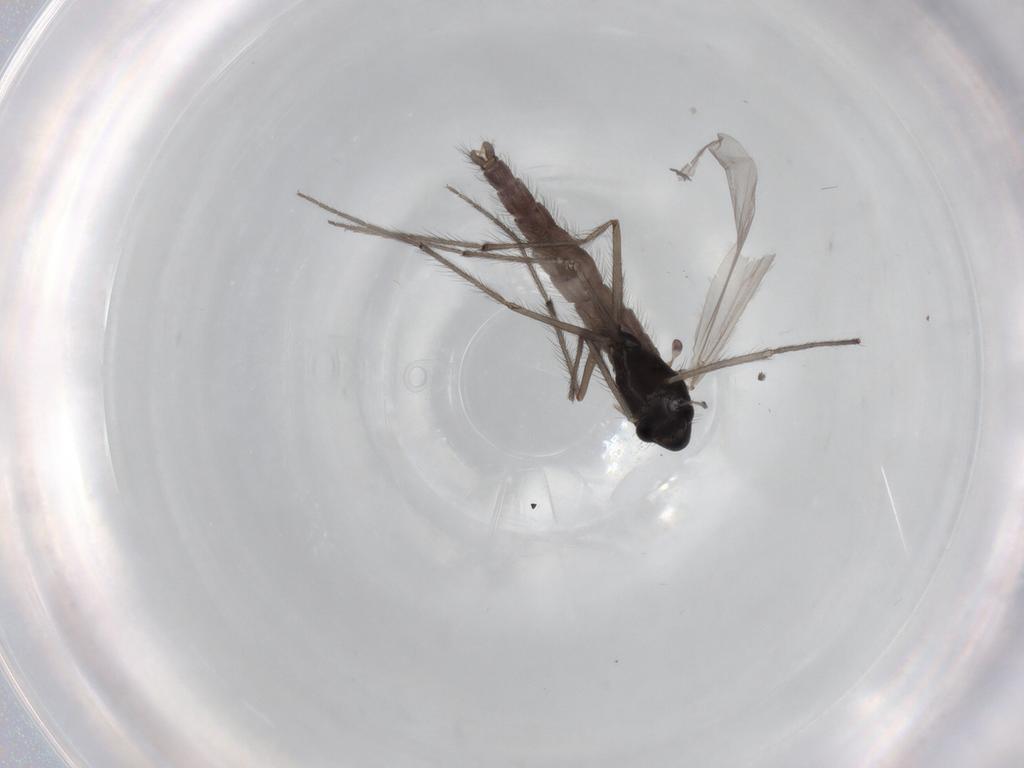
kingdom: Animalia
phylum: Arthropoda
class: Insecta
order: Diptera
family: Chironomidae
